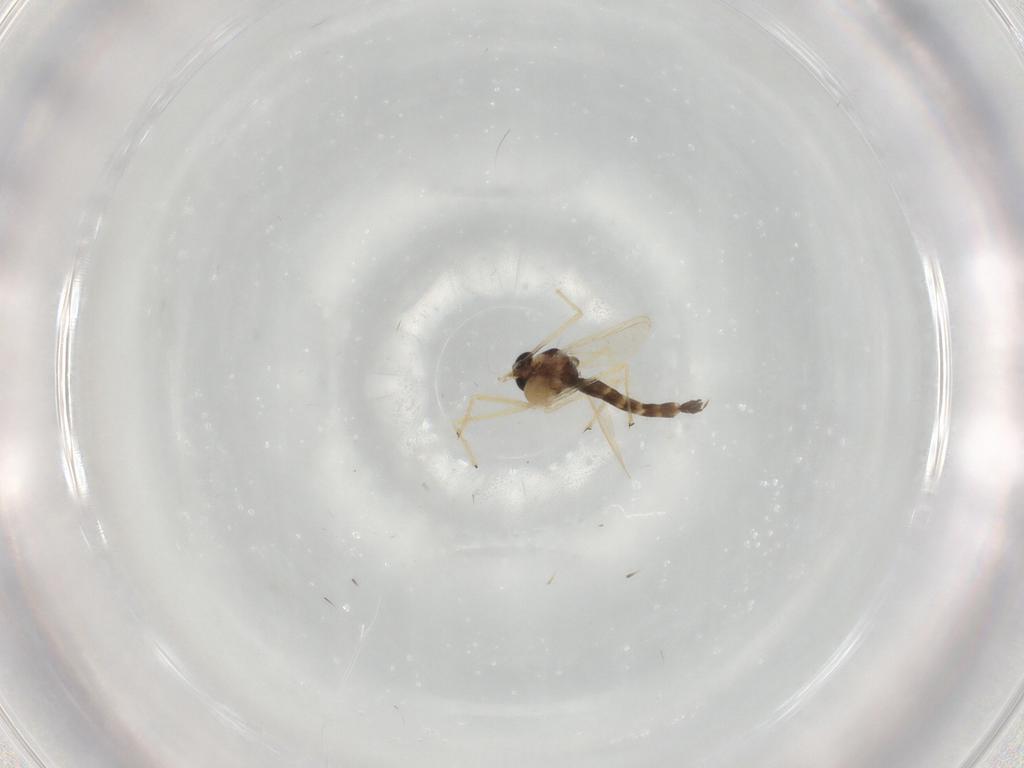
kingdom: Animalia
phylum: Arthropoda
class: Insecta
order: Diptera
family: Chironomidae
